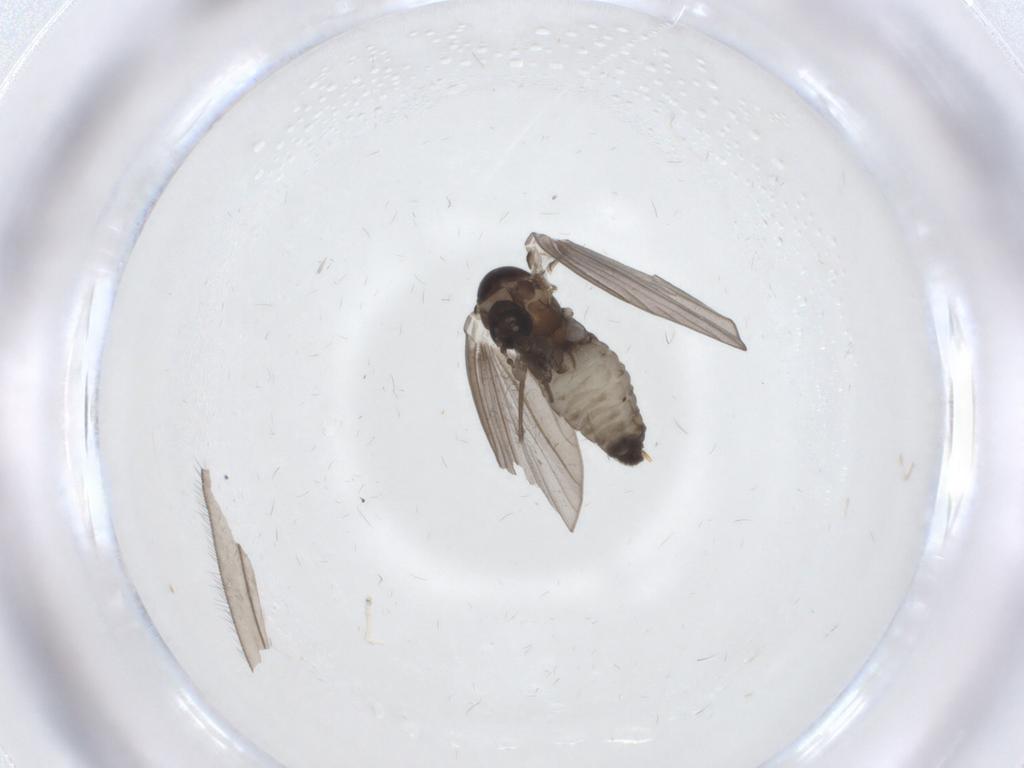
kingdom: Animalia
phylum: Arthropoda
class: Insecta
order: Diptera
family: Psychodidae
